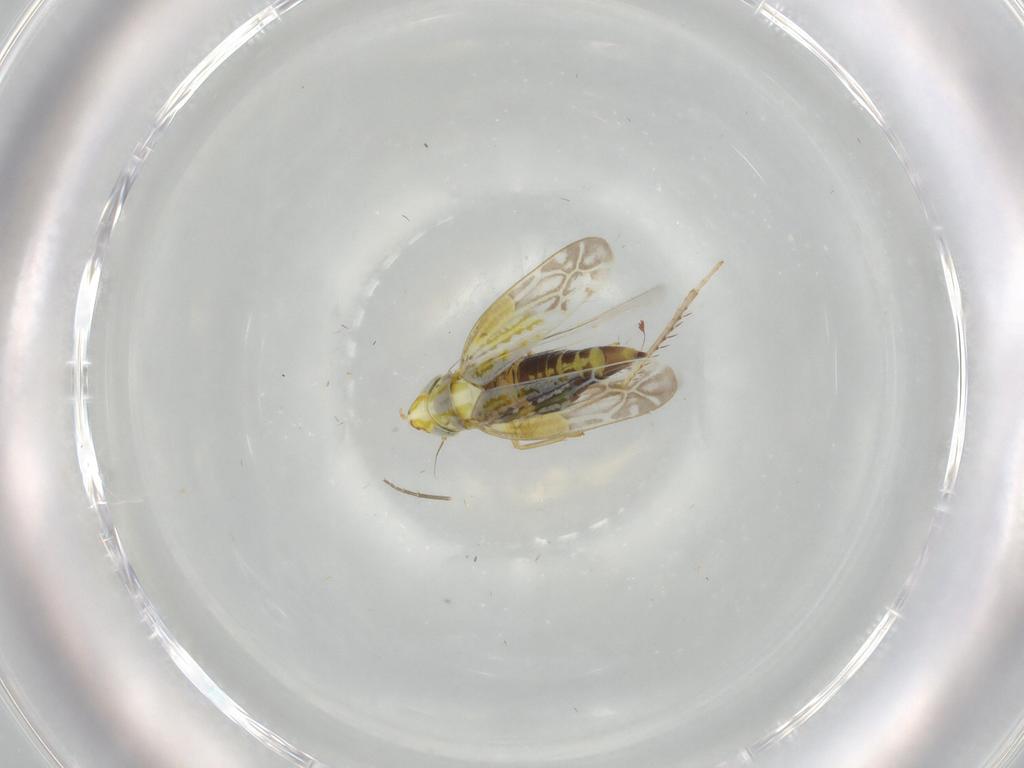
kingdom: Animalia
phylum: Arthropoda
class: Insecta
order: Hemiptera
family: Cicadellidae
